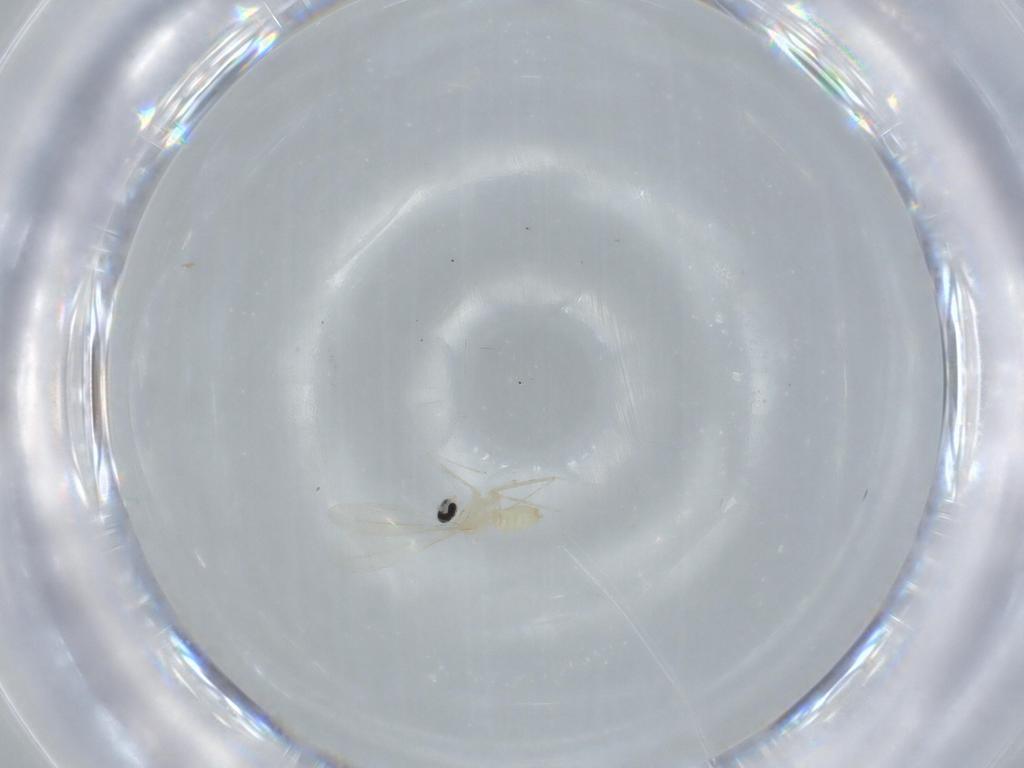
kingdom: Animalia
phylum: Arthropoda
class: Insecta
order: Diptera
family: Cecidomyiidae
